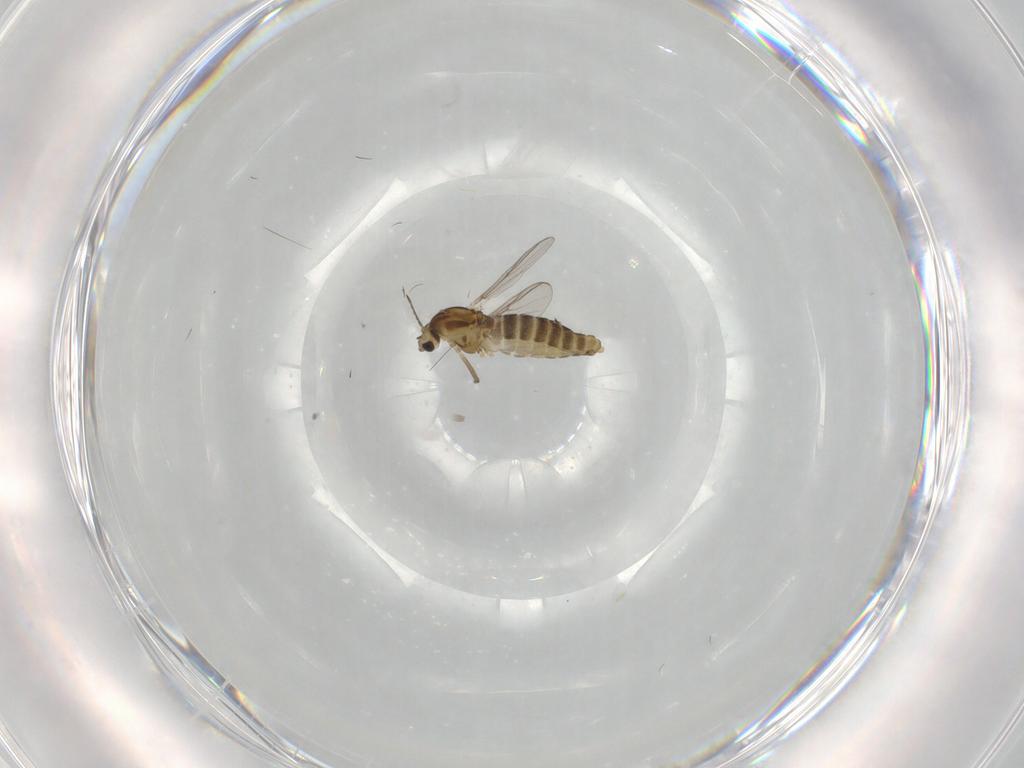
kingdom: Animalia
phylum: Arthropoda
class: Insecta
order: Diptera
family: Chironomidae
